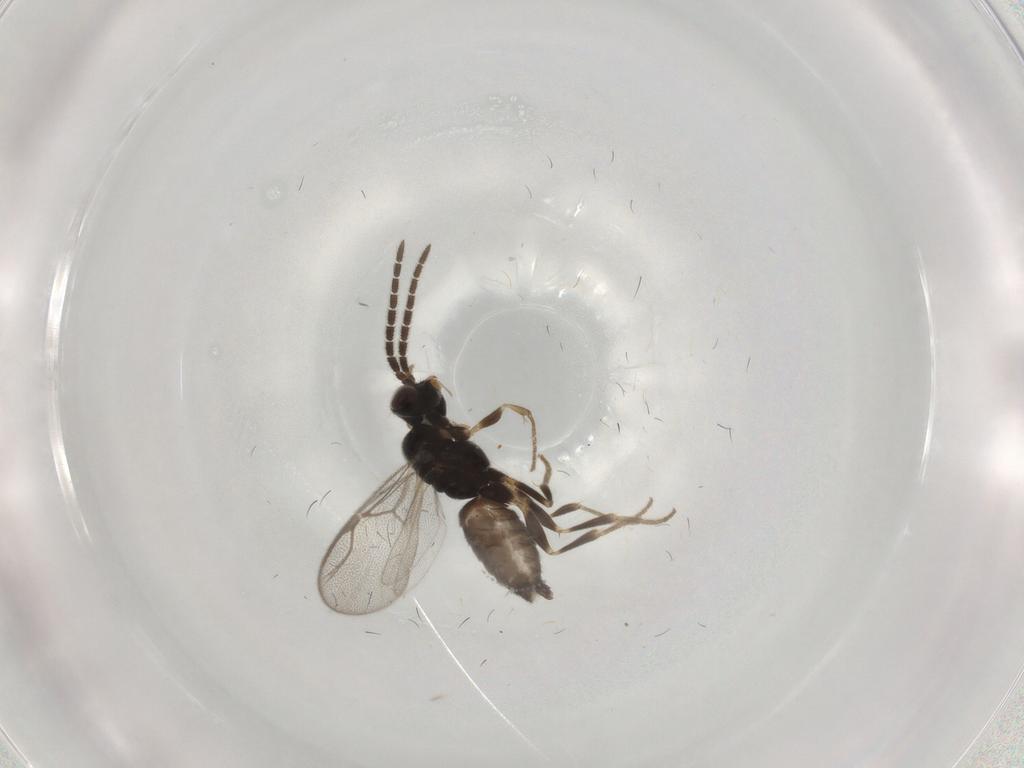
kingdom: Animalia
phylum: Arthropoda
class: Insecta
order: Hymenoptera
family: Dryinidae
